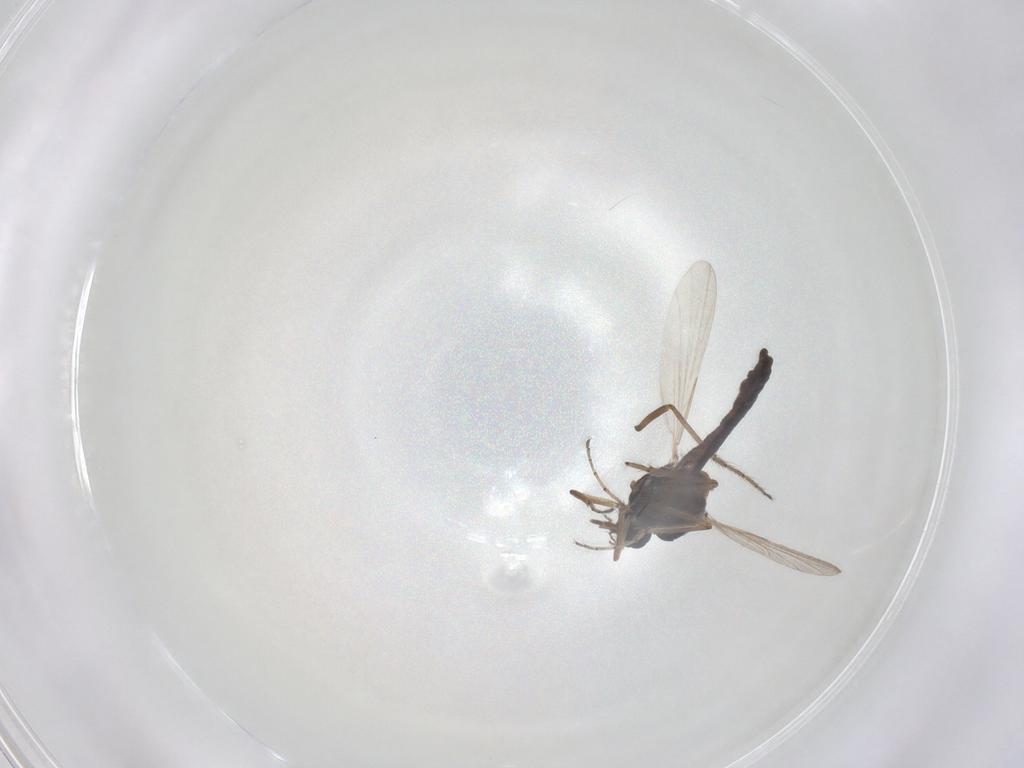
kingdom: Animalia
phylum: Arthropoda
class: Insecta
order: Diptera
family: Ceratopogonidae
